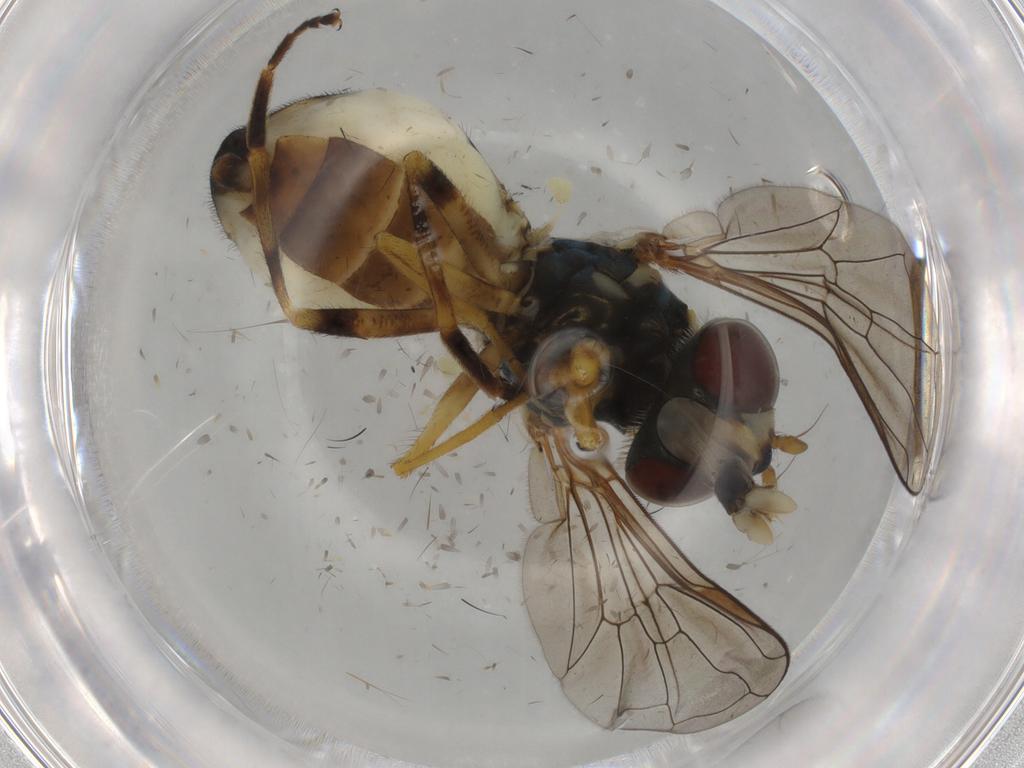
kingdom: Animalia
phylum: Arthropoda
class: Insecta
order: Diptera
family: Syrphidae
